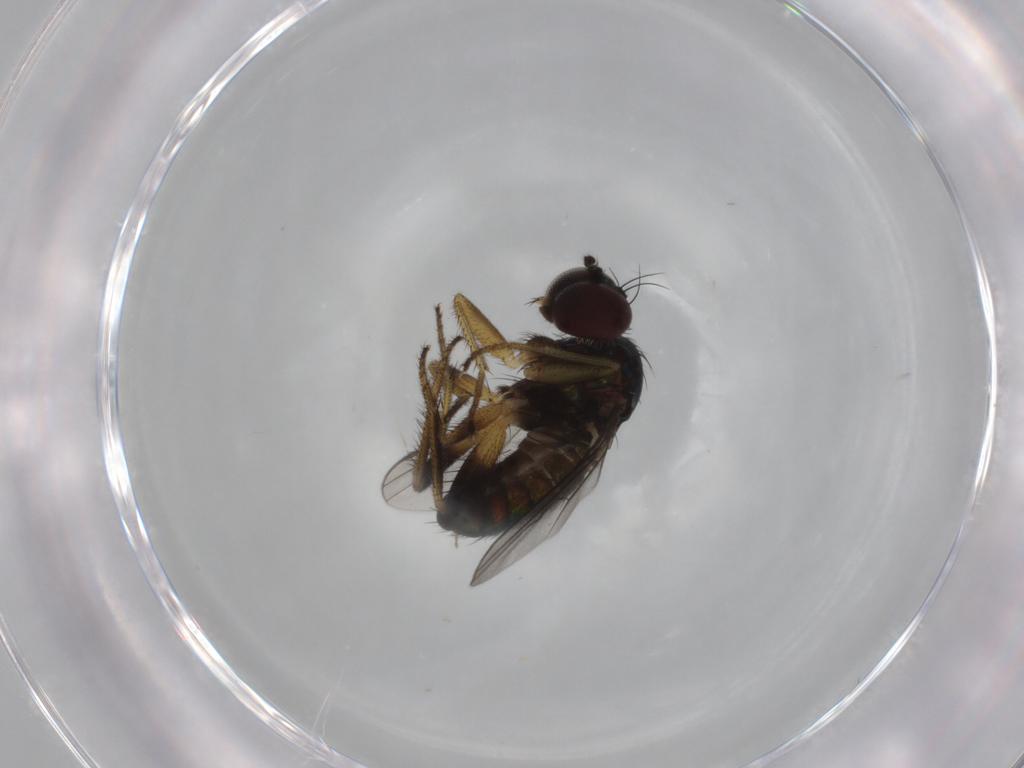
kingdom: Animalia
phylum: Arthropoda
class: Insecta
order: Diptera
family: Dolichopodidae
